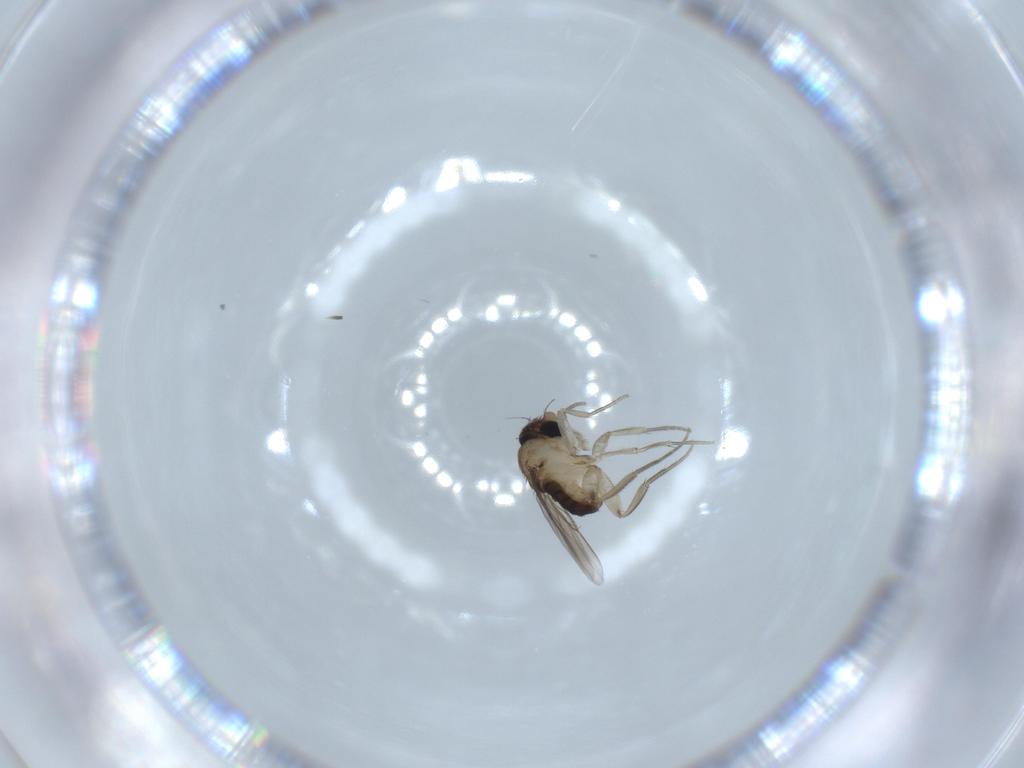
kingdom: Animalia
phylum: Arthropoda
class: Insecta
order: Diptera
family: Phoridae
